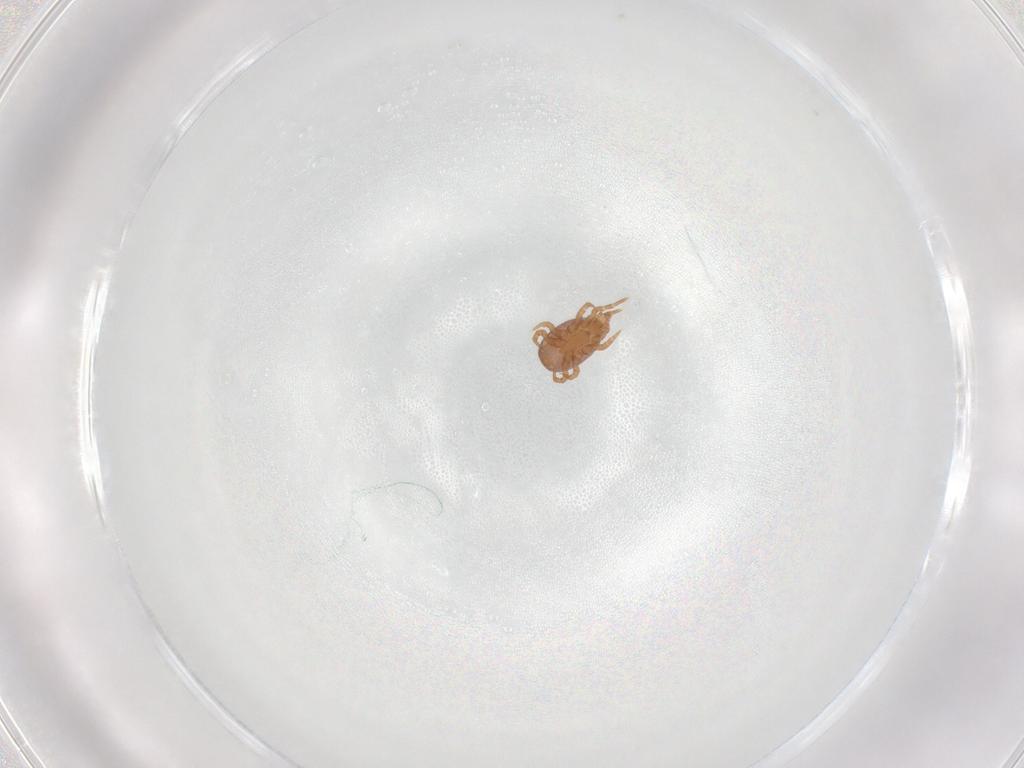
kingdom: Animalia
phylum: Arthropoda
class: Arachnida
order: Mesostigmata
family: Eviphididae
